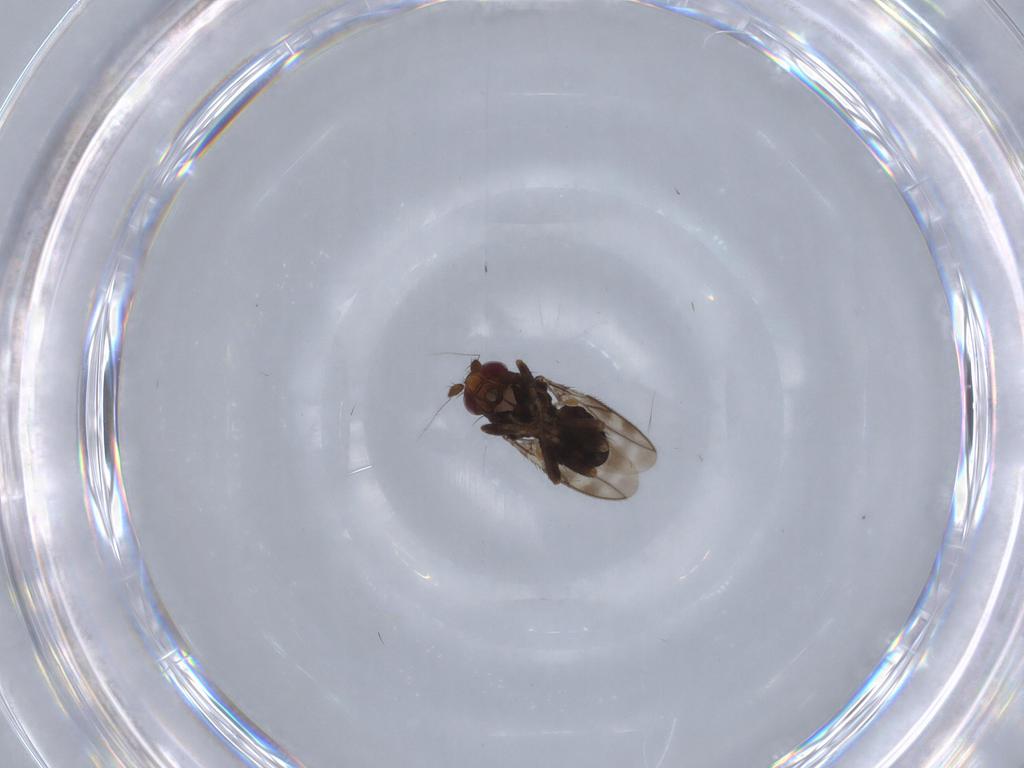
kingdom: Animalia
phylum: Arthropoda
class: Insecta
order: Diptera
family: Sphaeroceridae
